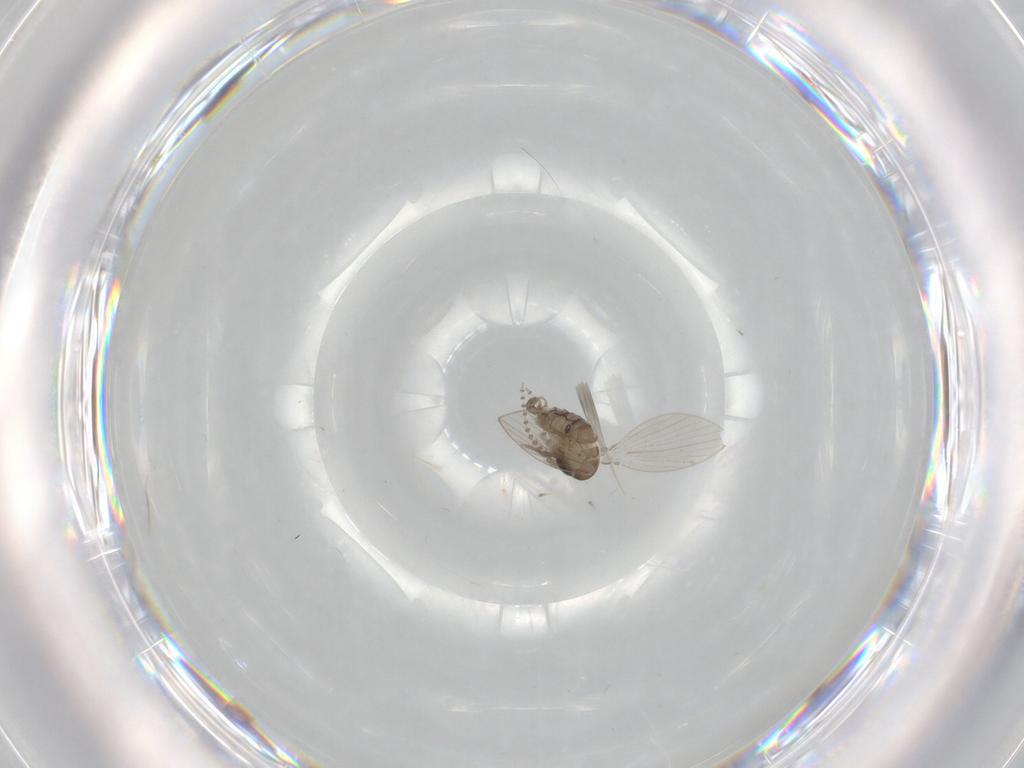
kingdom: Animalia
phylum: Arthropoda
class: Insecta
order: Diptera
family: Psychodidae
